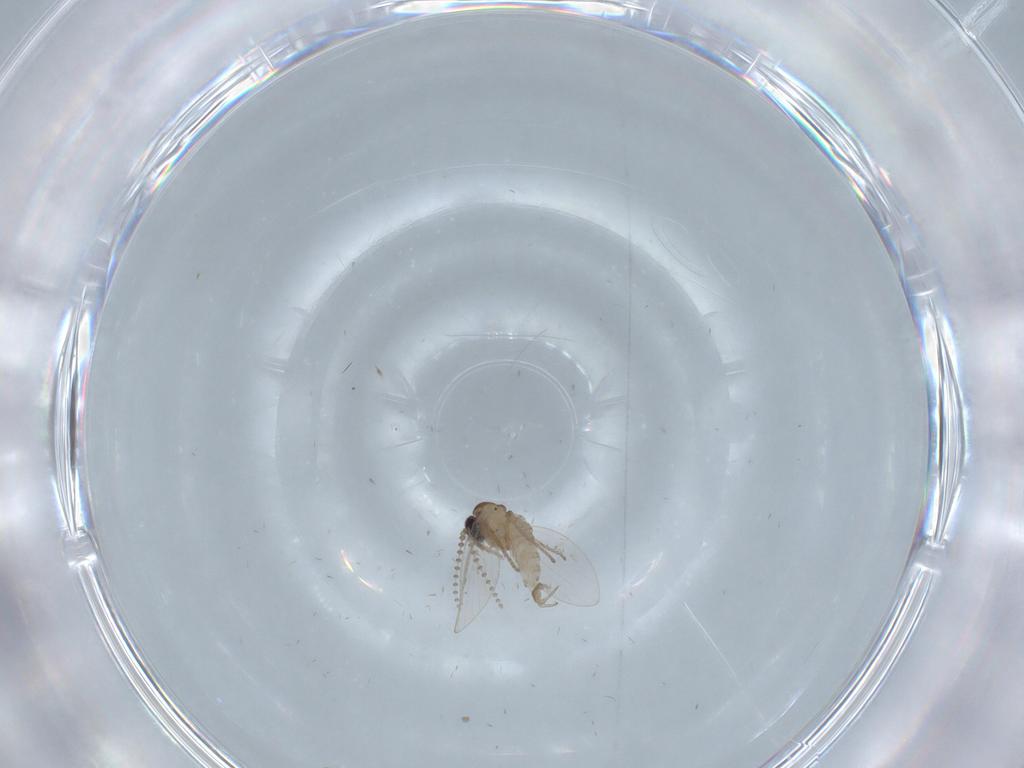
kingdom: Animalia
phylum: Arthropoda
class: Insecta
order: Diptera
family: Psychodidae
